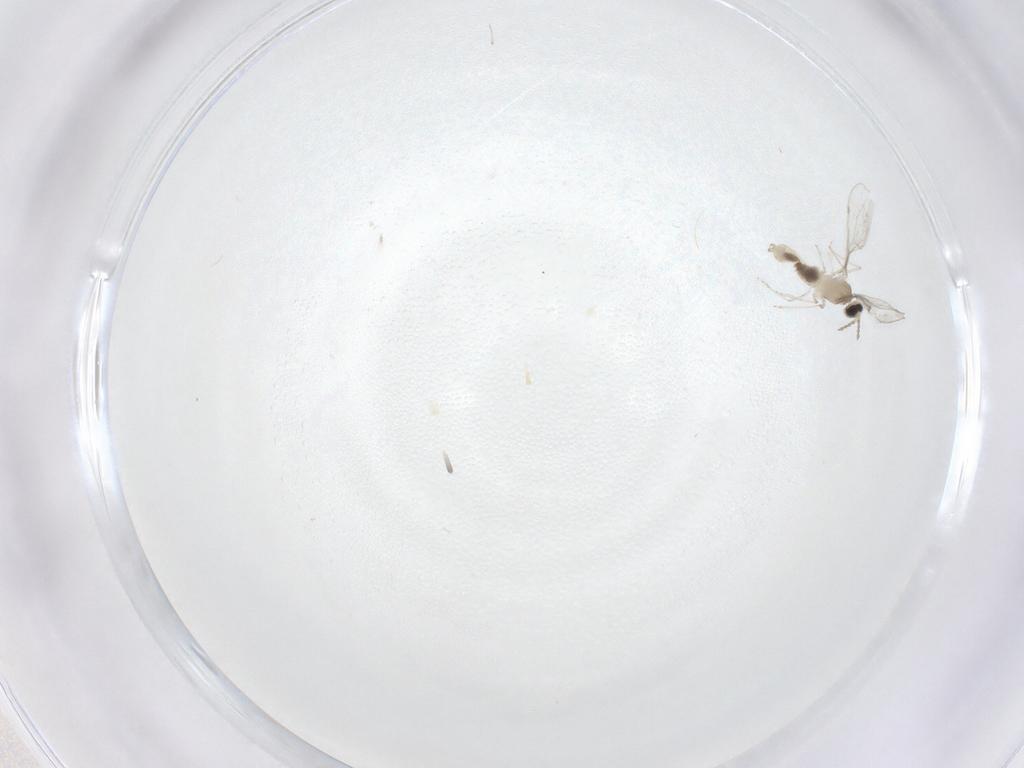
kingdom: Animalia
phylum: Arthropoda
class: Insecta
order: Diptera
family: Cecidomyiidae
